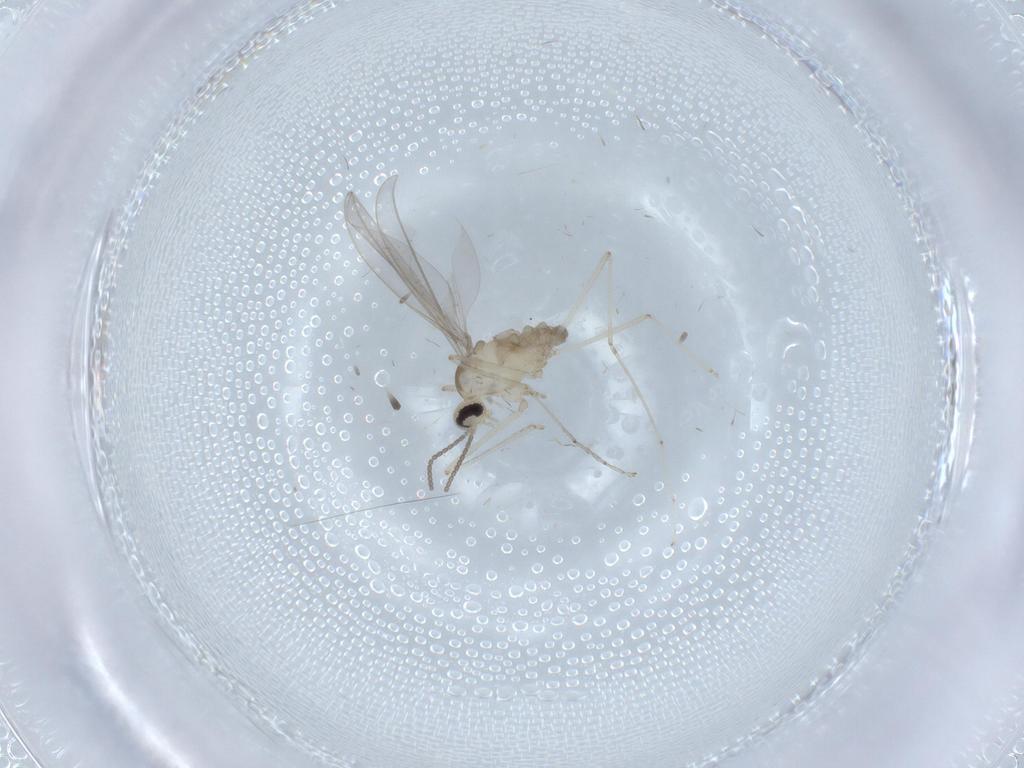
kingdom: Animalia
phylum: Arthropoda
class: Insecta
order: Diptera
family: Cecidomyiidae
